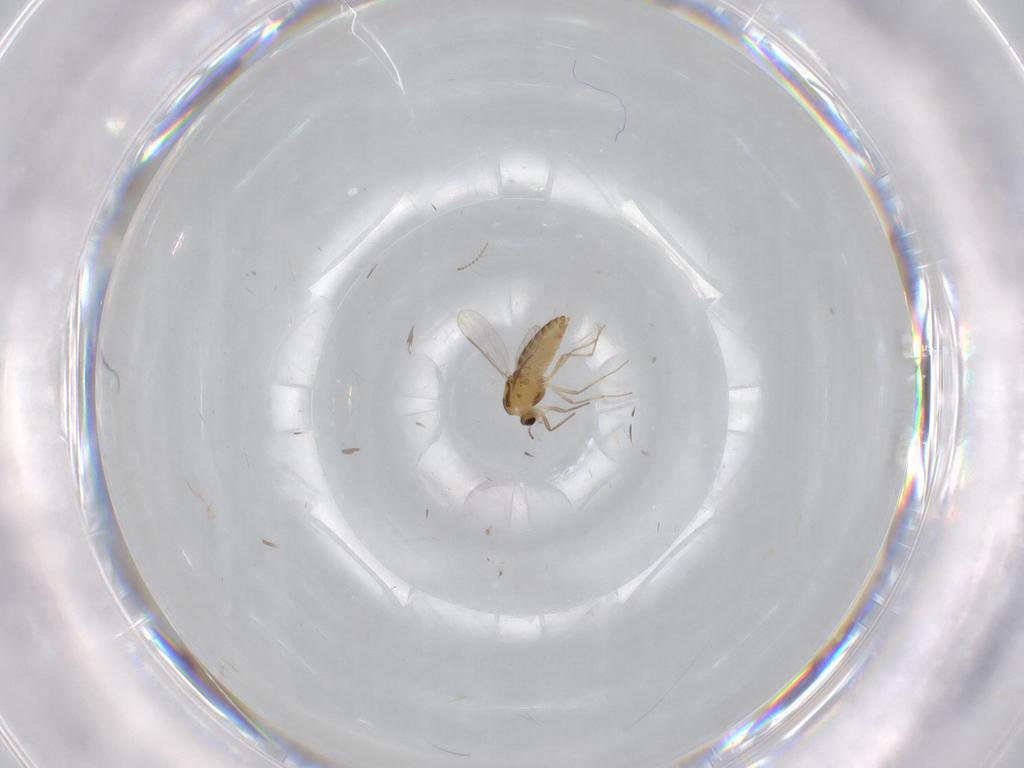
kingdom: Animalia
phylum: Arthropoda
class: Insecta
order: Diptera
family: Chironomidae
